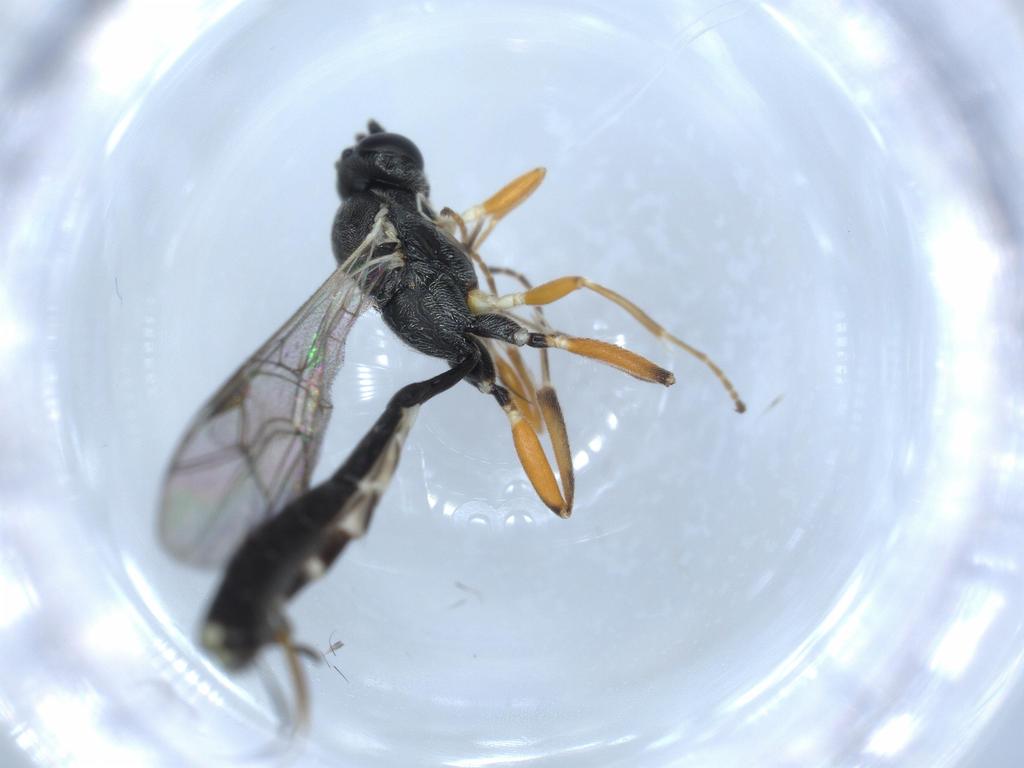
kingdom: Animalia
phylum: Arthropoda
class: Insecta
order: Hymenoptera
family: Ichneumonidae
